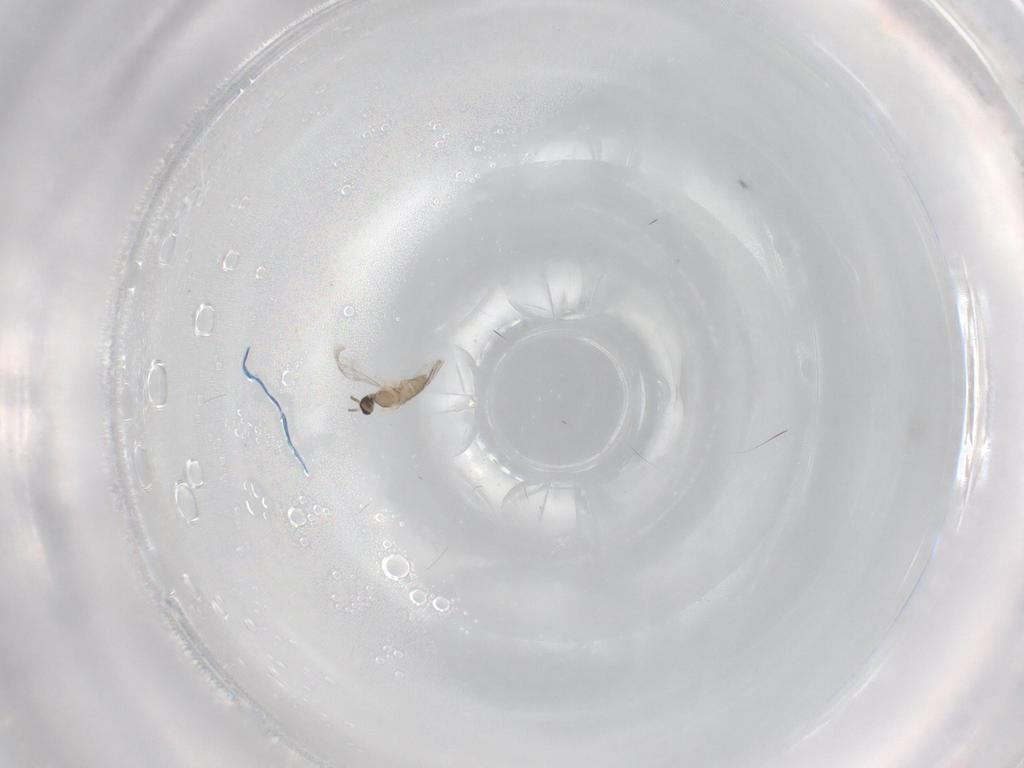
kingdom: Animalia
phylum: Arthropoda
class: Insecta
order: Diptera
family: Cecidomyiidae
